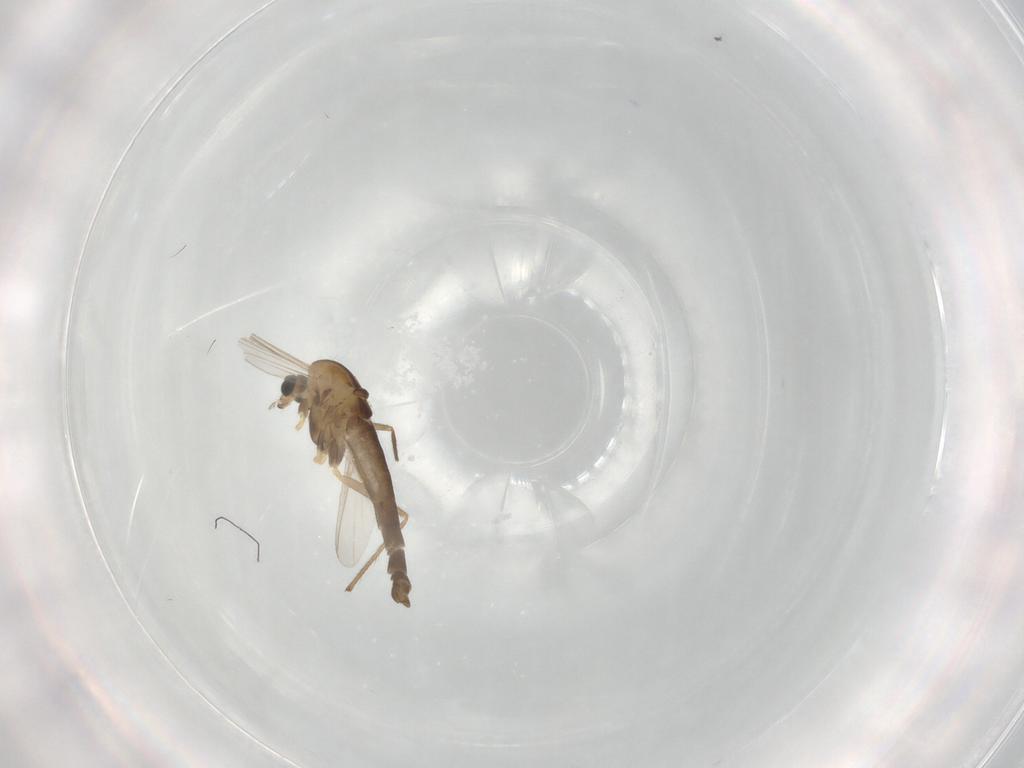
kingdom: Animalia
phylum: Arthropoda
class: Insecta
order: Diptera
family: Chironomidae
